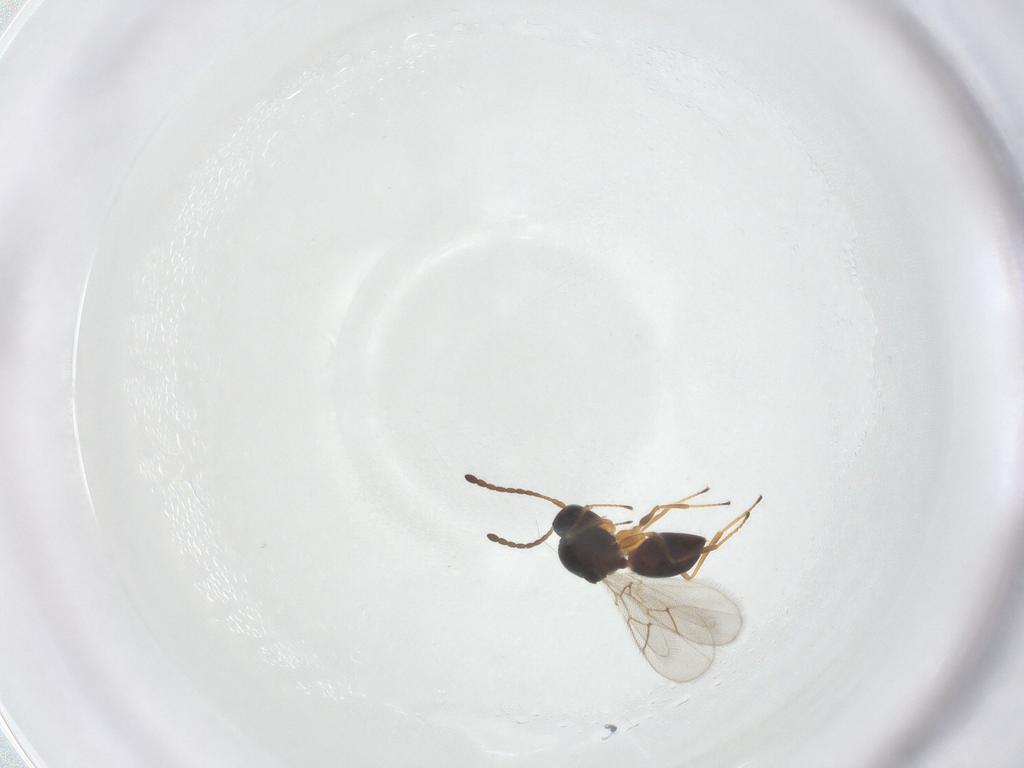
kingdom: Animalia
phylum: Arthropoda
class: Insecta
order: Hymenoptera
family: Figitidae
